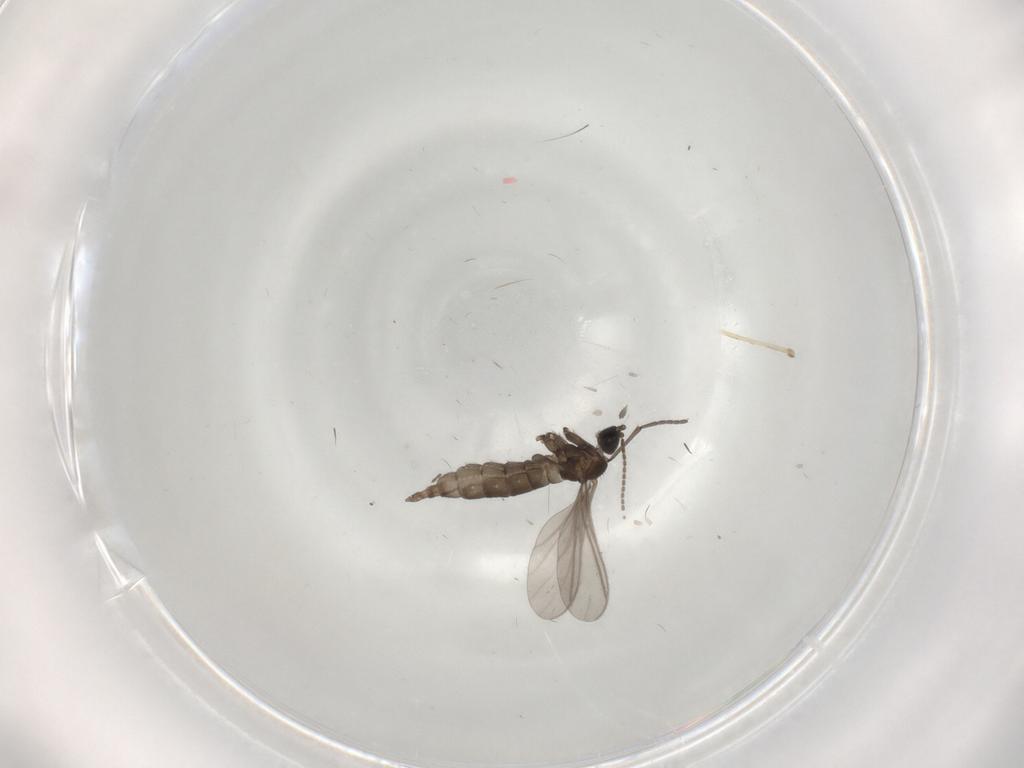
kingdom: Animalia
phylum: Arthropoda
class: Insecta
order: Diptera
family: Cecidomyiidae
